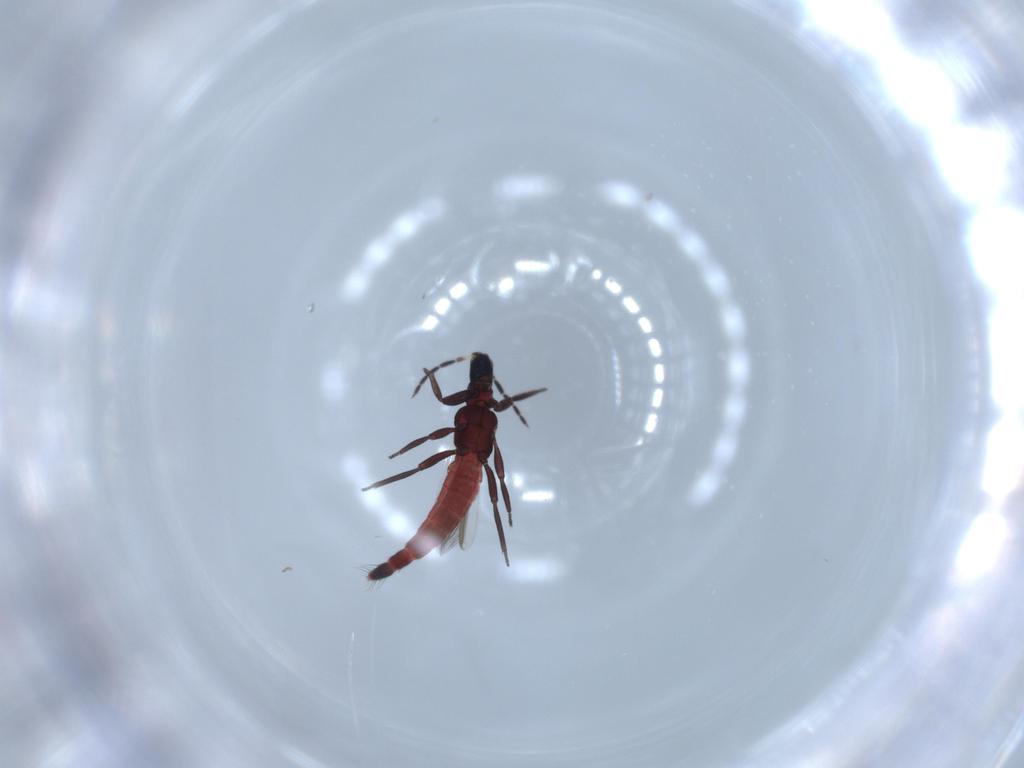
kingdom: Animalia
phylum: Arthropoda
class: Insecta
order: Thysanoptera
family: Aeolothripidae
